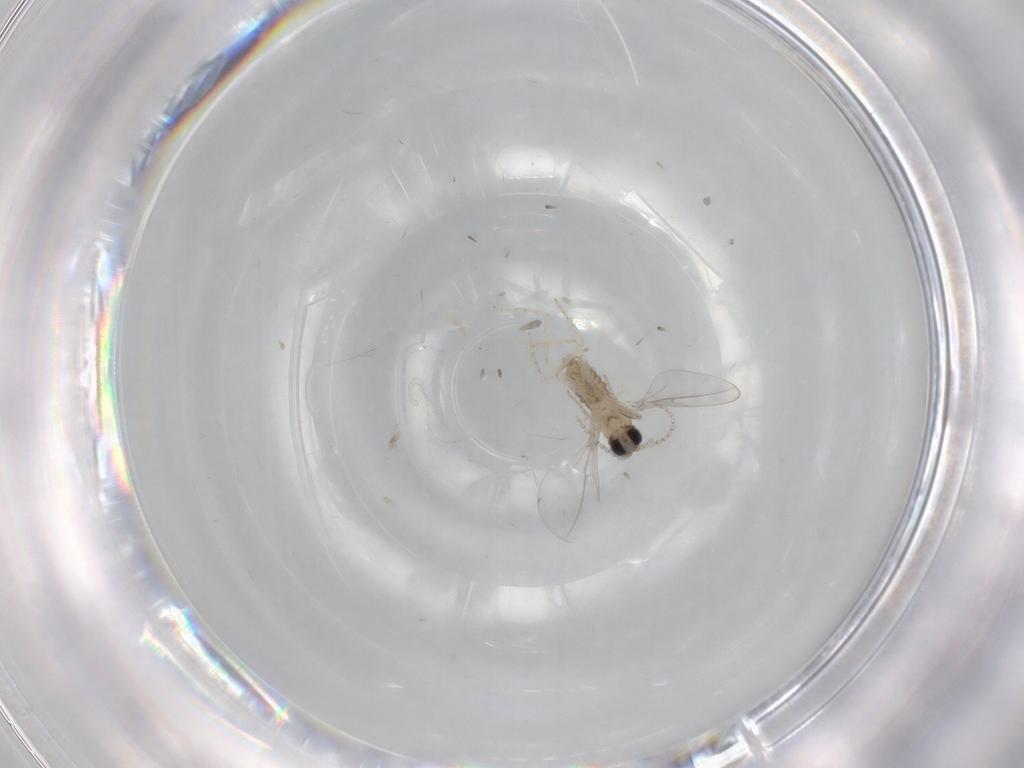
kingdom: Animalia
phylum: Arthropoda
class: Insecta
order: Diptera
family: Cecidomyiidae
